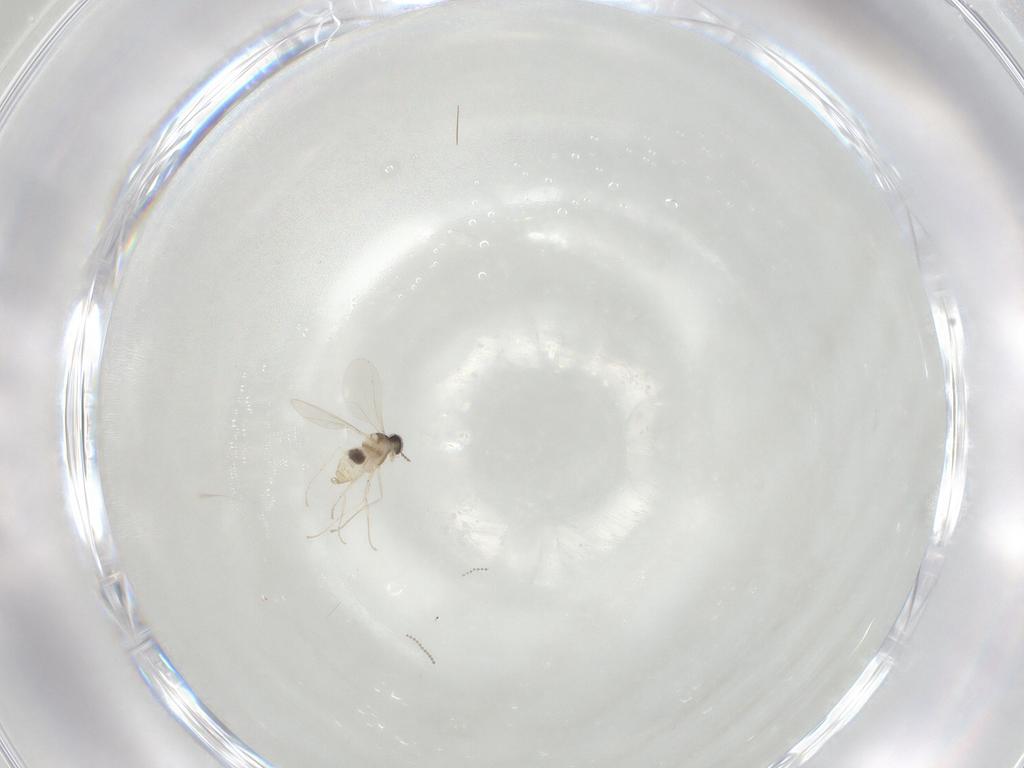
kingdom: Animalia
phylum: Arthropoda
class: Insecta
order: Diptera
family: Cecidomyiidae
